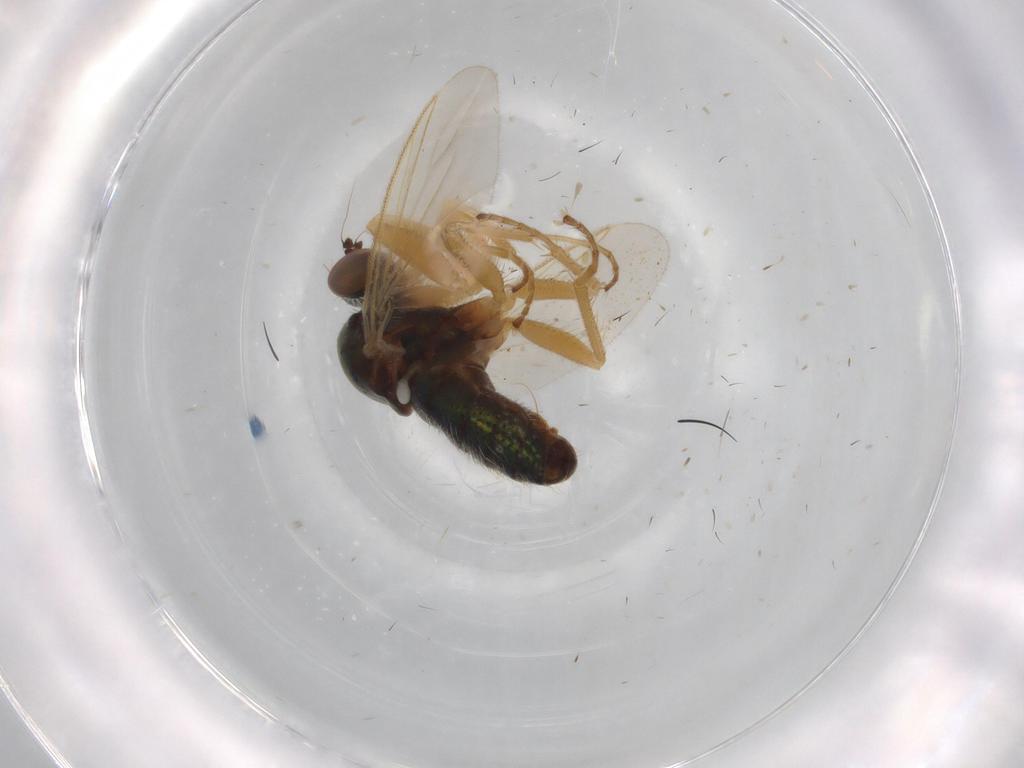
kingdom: Animalia
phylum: Arthropoda
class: Insecta
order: Diptera
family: Dolichopodidae
